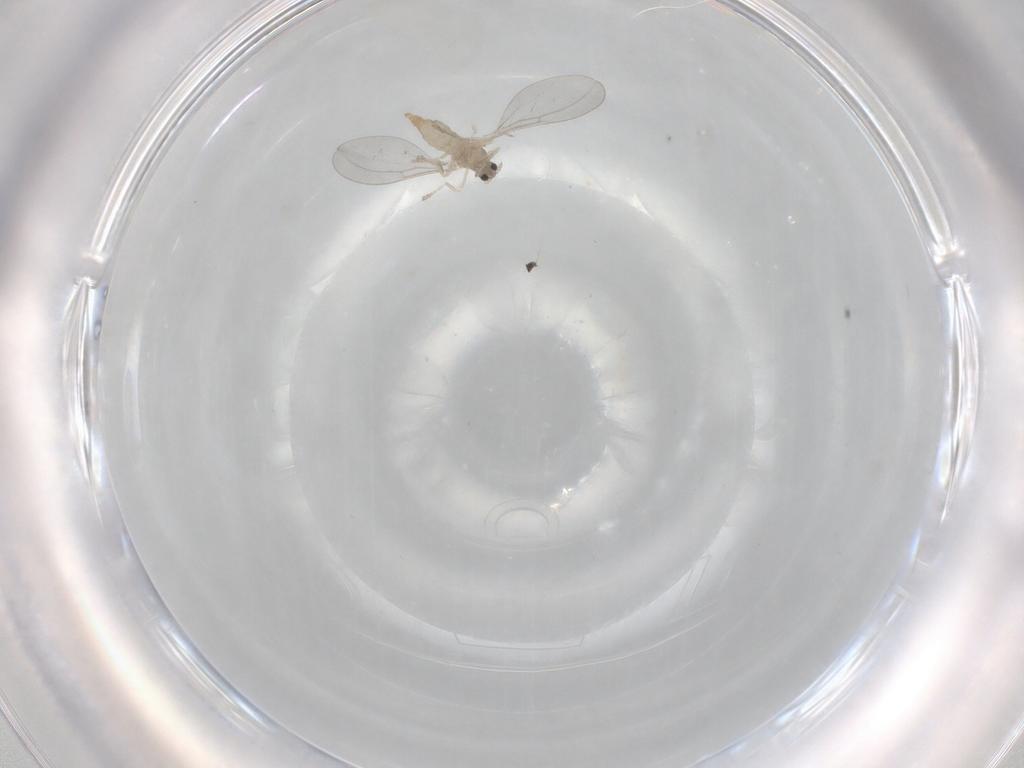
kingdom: Animalia
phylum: Arthropoda
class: Insecta
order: Diptera
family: Cecidomyiidae
